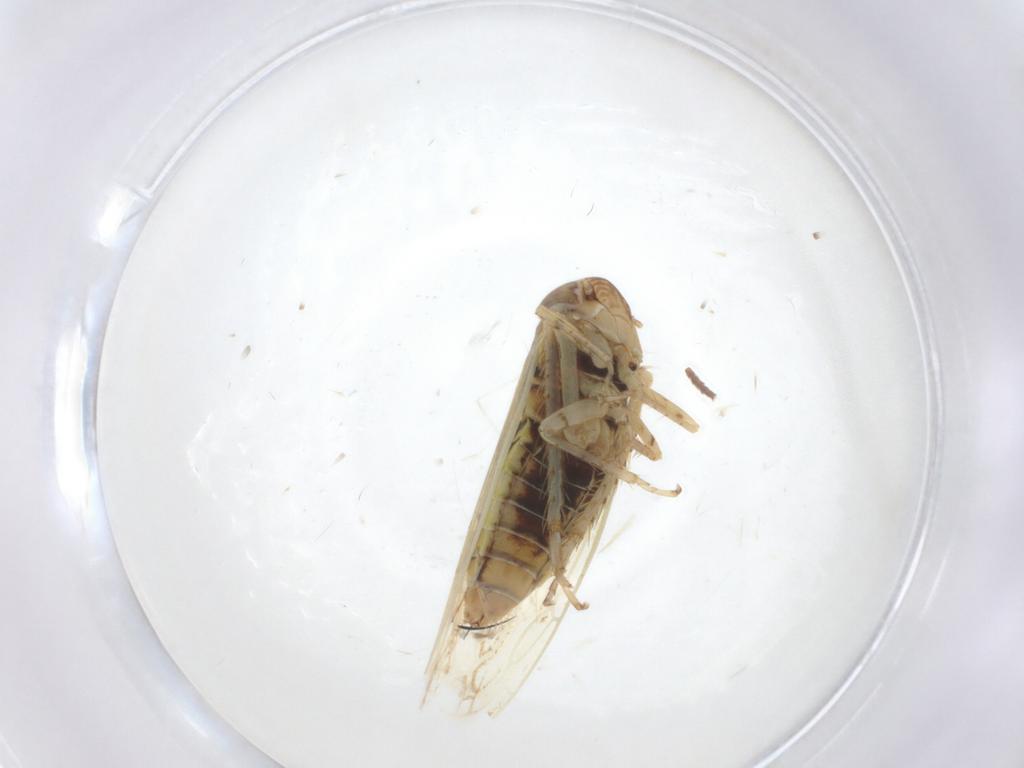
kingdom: Animalia
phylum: Arthropoda
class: Insecta
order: Hemiptera
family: Cicadellidae
